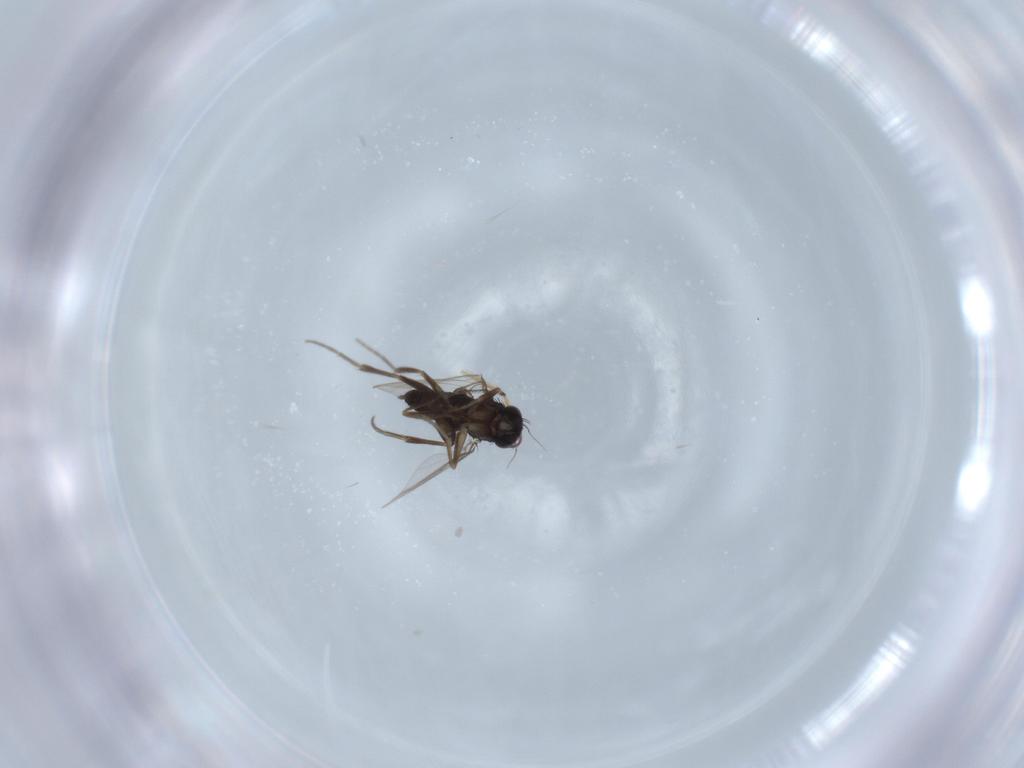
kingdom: Animalia
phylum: Arthropoda
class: Insecta
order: Diptera
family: Phoridae
